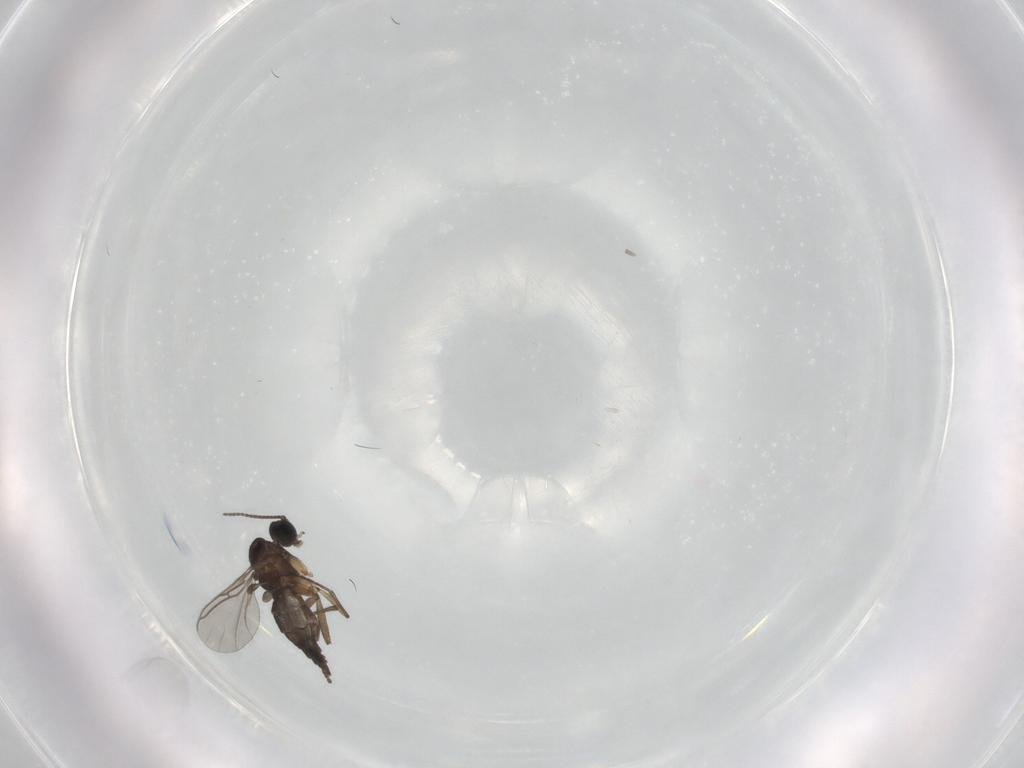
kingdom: Animalia
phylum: Arthropoda
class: Insecta
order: Diptera
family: Sciaridae
